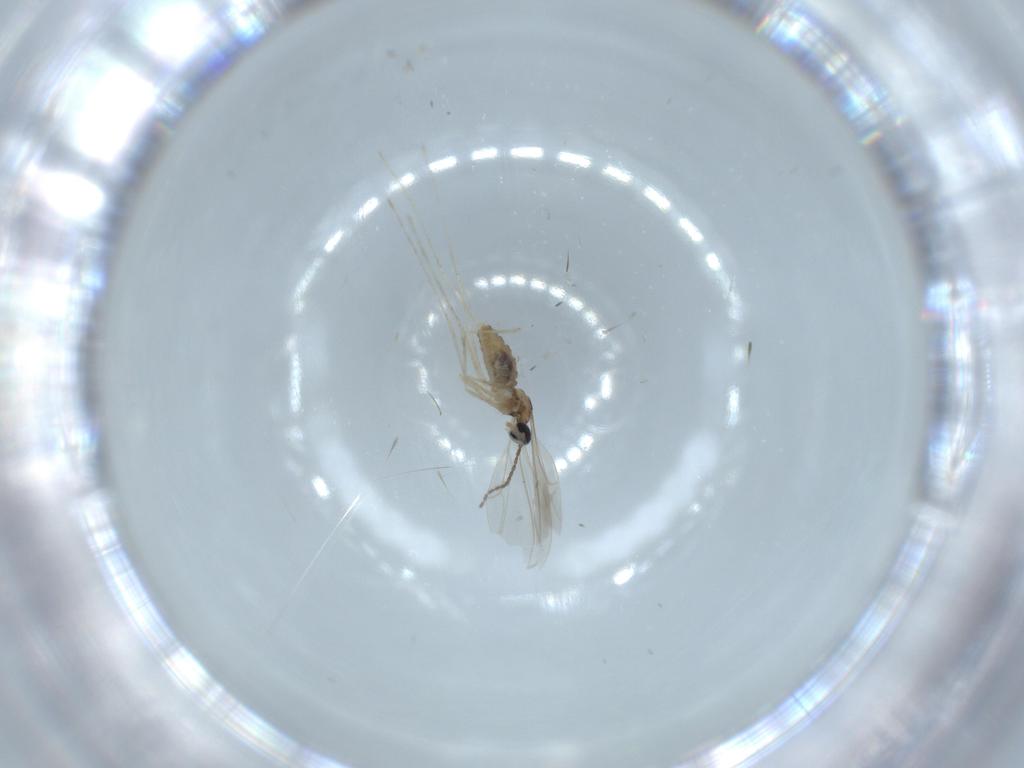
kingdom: Animalia
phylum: Arthropoda
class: Insecta
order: Diptera
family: Cecidomyiidae
